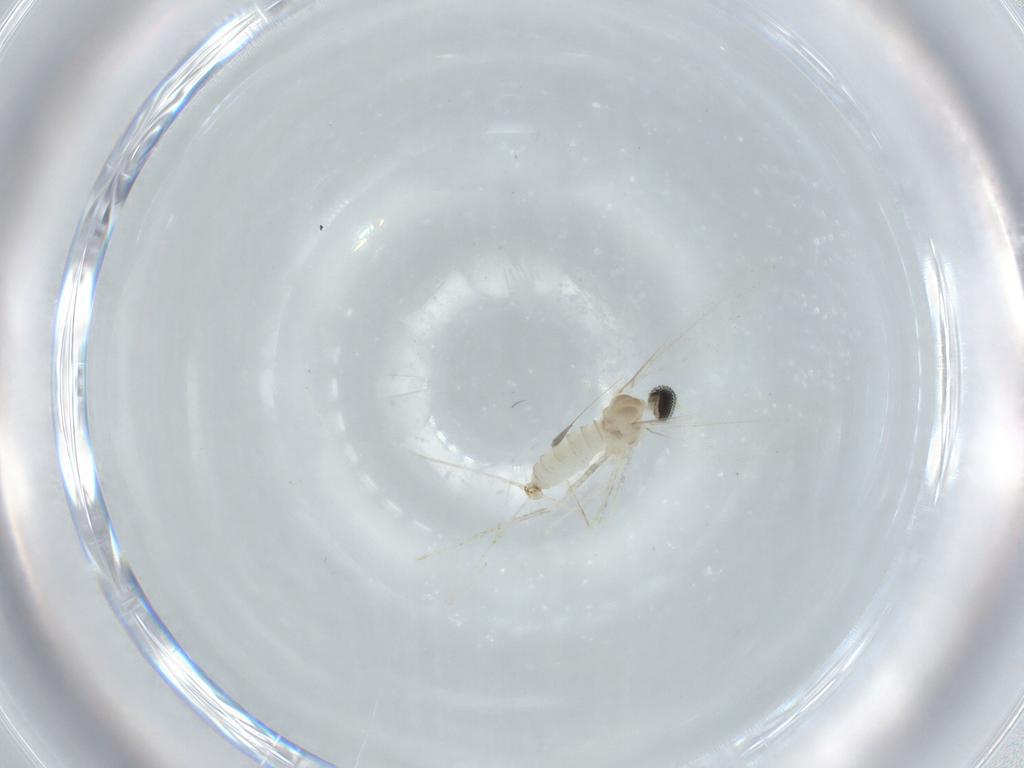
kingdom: Animalia
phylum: Arthropoda
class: Insecta
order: Diptera
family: Cecidomyiidae
